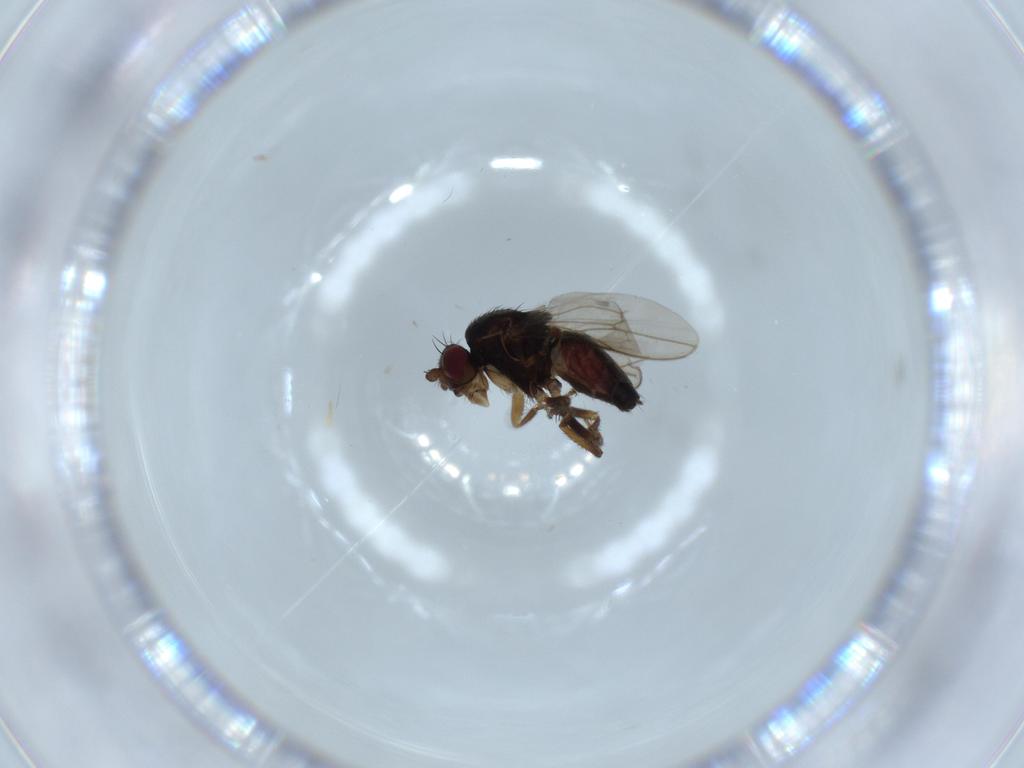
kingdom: Animalia
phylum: Arthropoda
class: Insecta
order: Diptera
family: Sphaeroceridae
